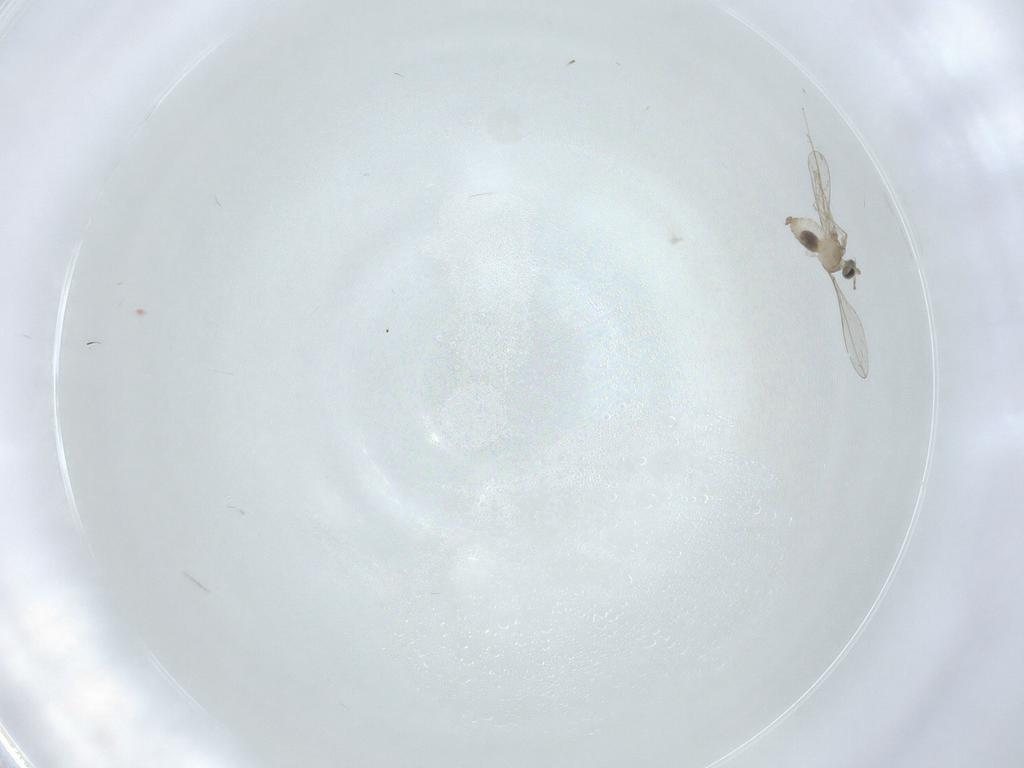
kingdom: Animalia
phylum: Arthropoda
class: Insecta
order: Diptera
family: Cecidomyiidae
